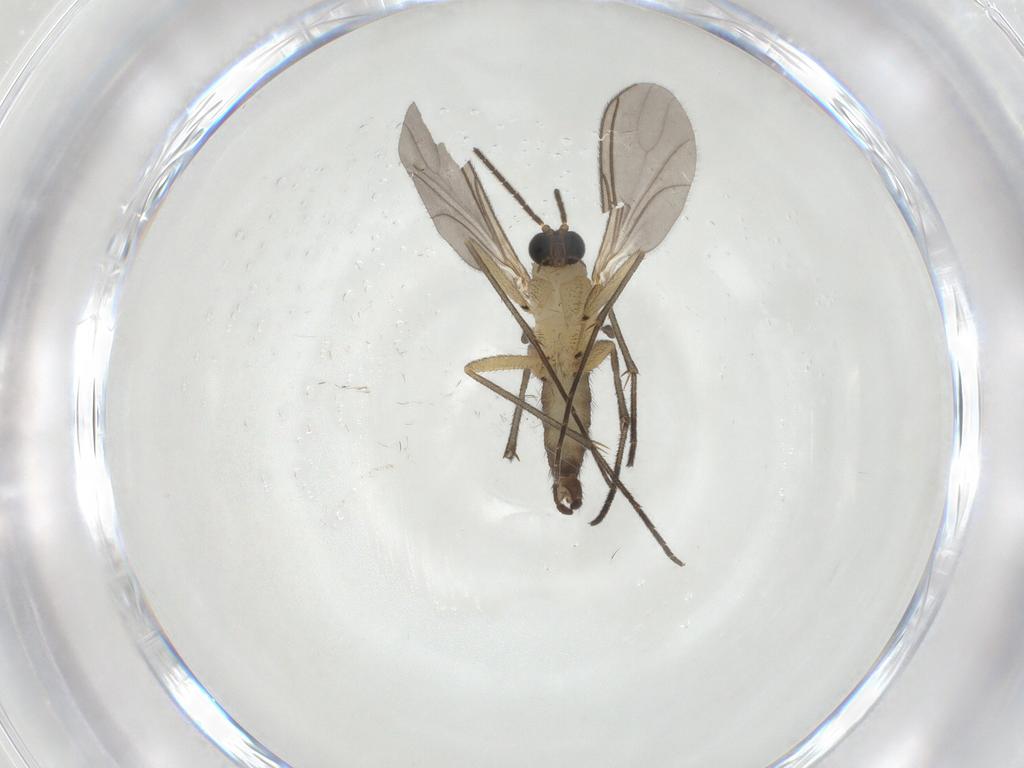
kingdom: Animalia
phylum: Arthropoda
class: Insecta
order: Diptera
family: Sciaridae
